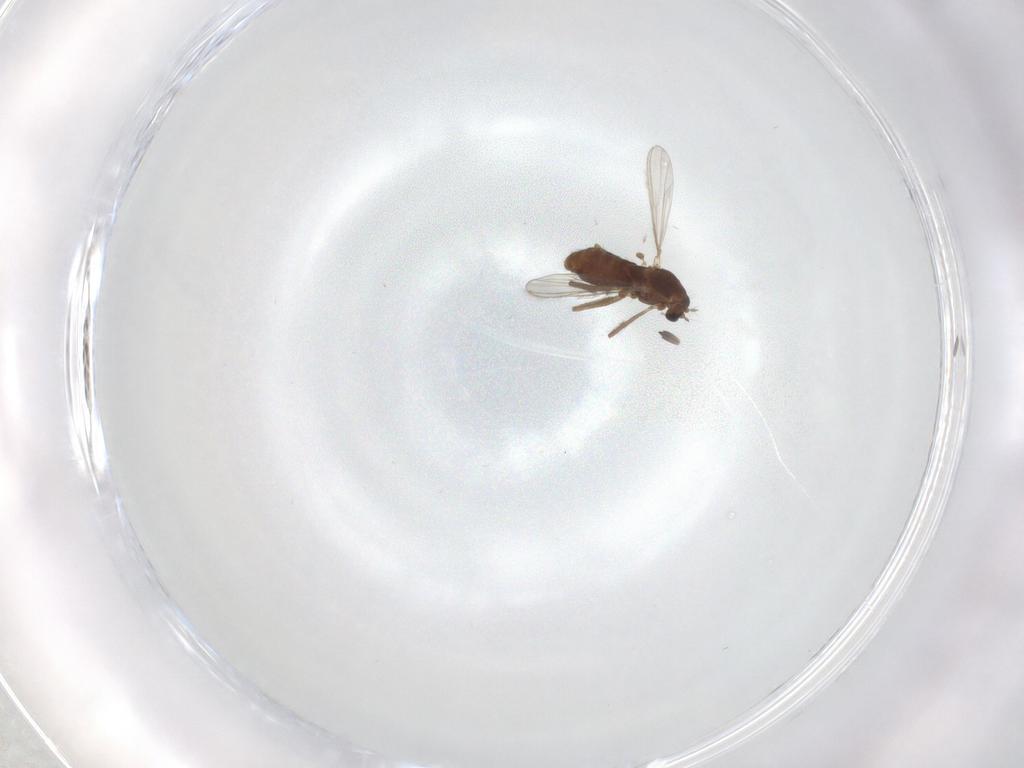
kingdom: Animalia
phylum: Arthropoda
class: Insecta
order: Diptera
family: Chironomidae
